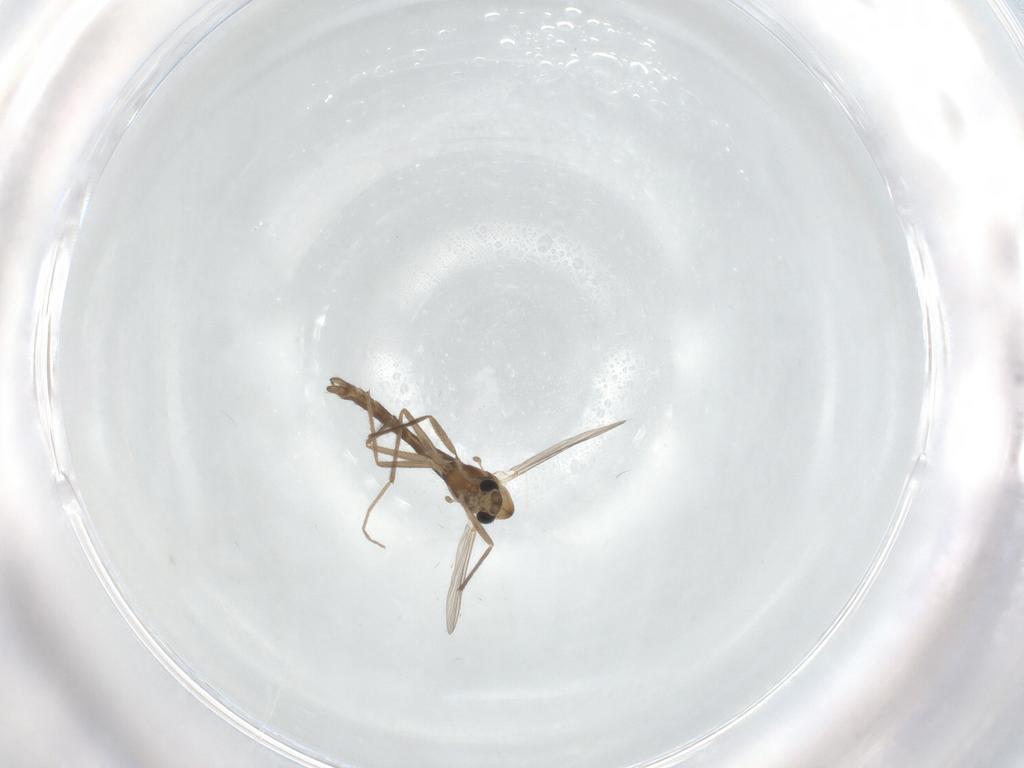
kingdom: Animalia
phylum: Arthropoda
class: Insecta
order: Diptera
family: Chironomidae
